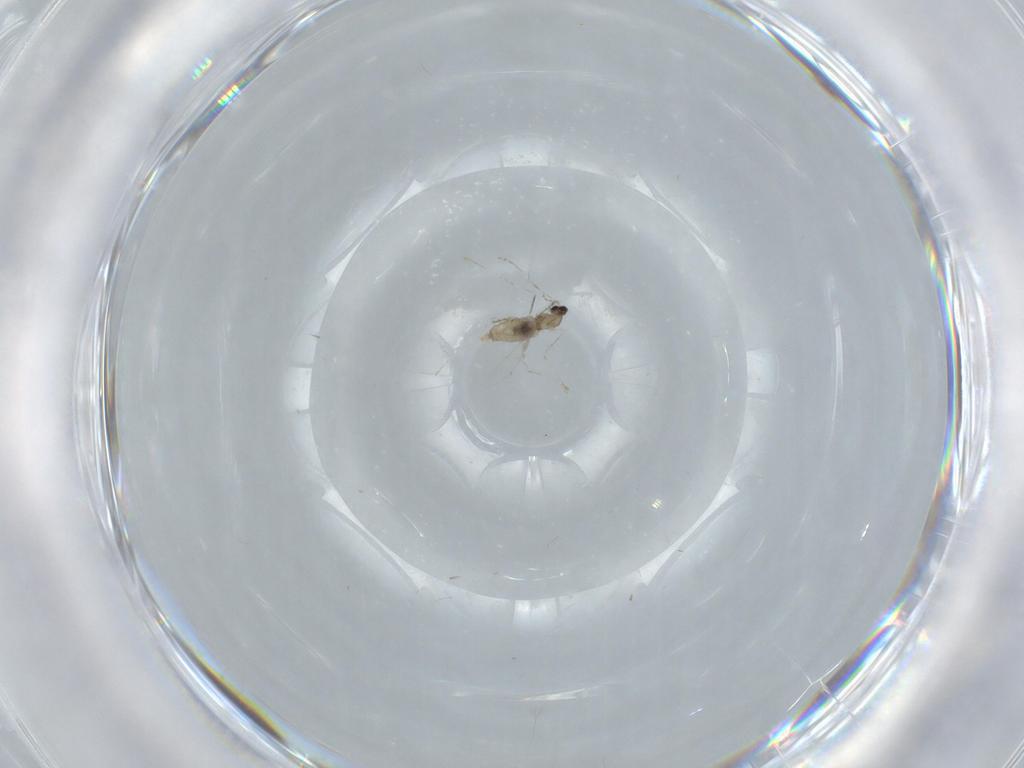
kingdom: Animalia
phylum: Arthropoda
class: Insecta
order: Diptera
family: Cecidomyiidae
